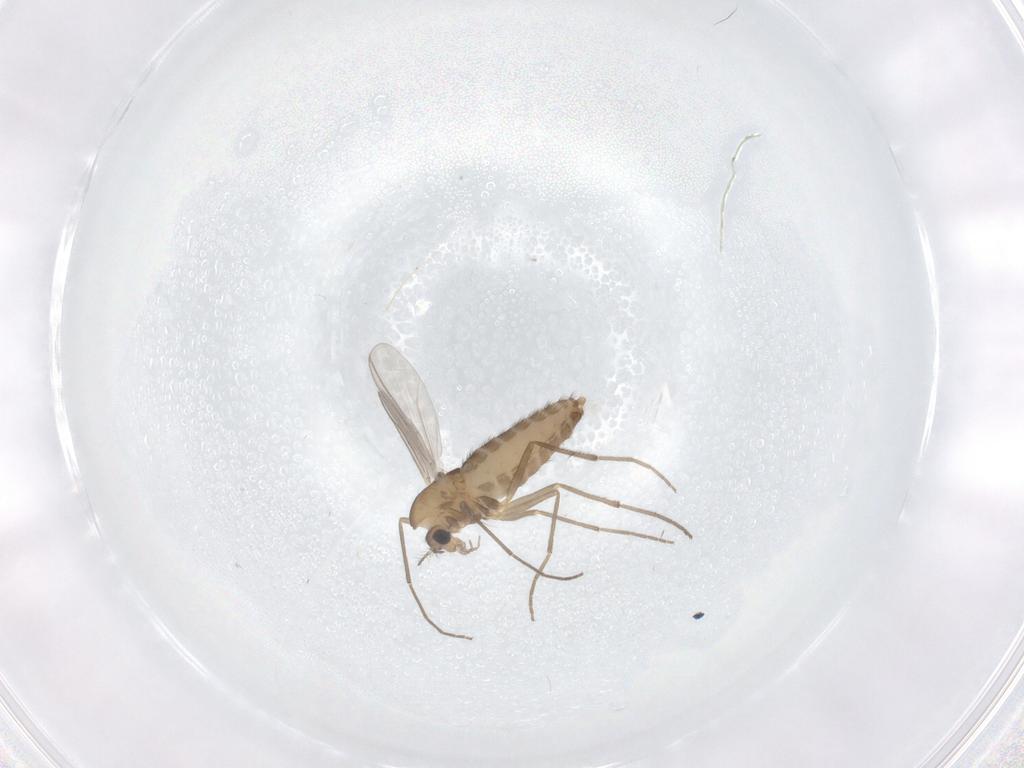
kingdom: Animalia
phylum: Arthropoda
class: Insecta
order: Diptera
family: Chironomidae
